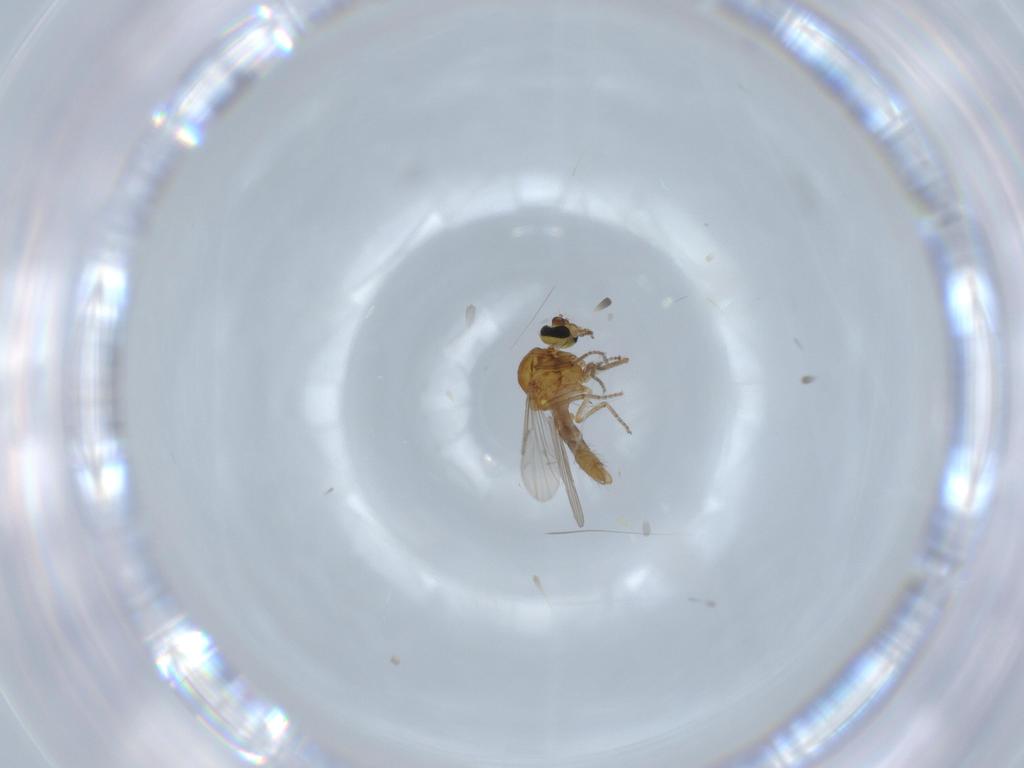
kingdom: Animalia
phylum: Arthropoda
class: Insecta
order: Diptera
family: Ceratopogonidae
